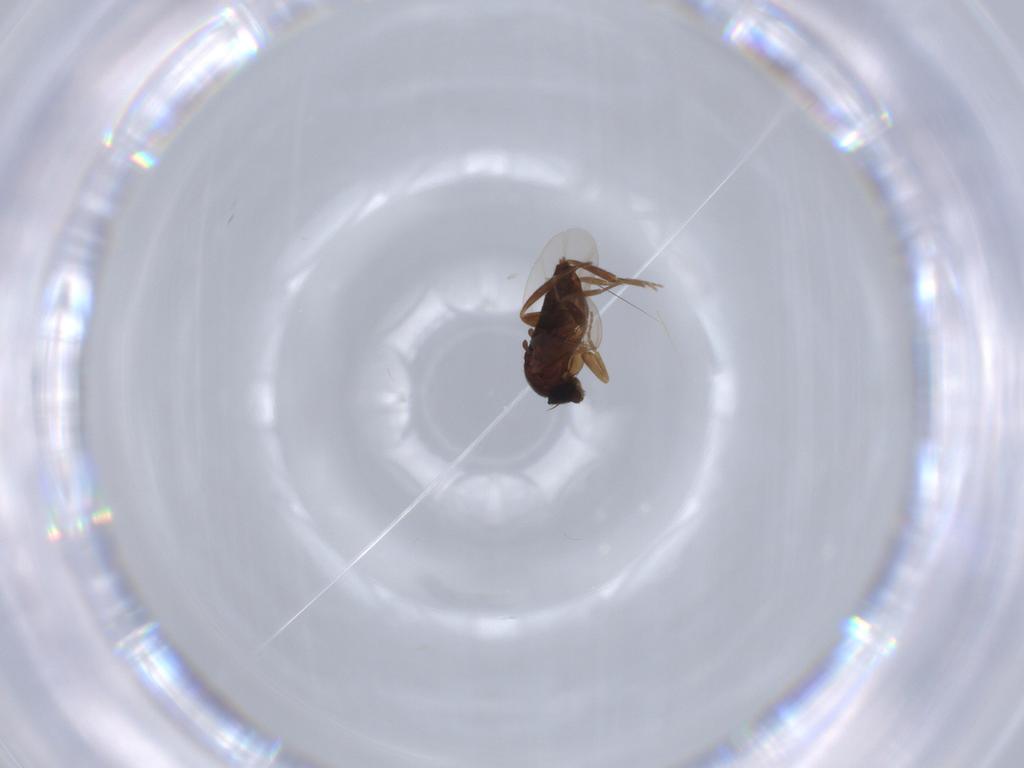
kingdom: Animalia
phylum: Arthropoda
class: Insecta
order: Diptera
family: Phoridae
